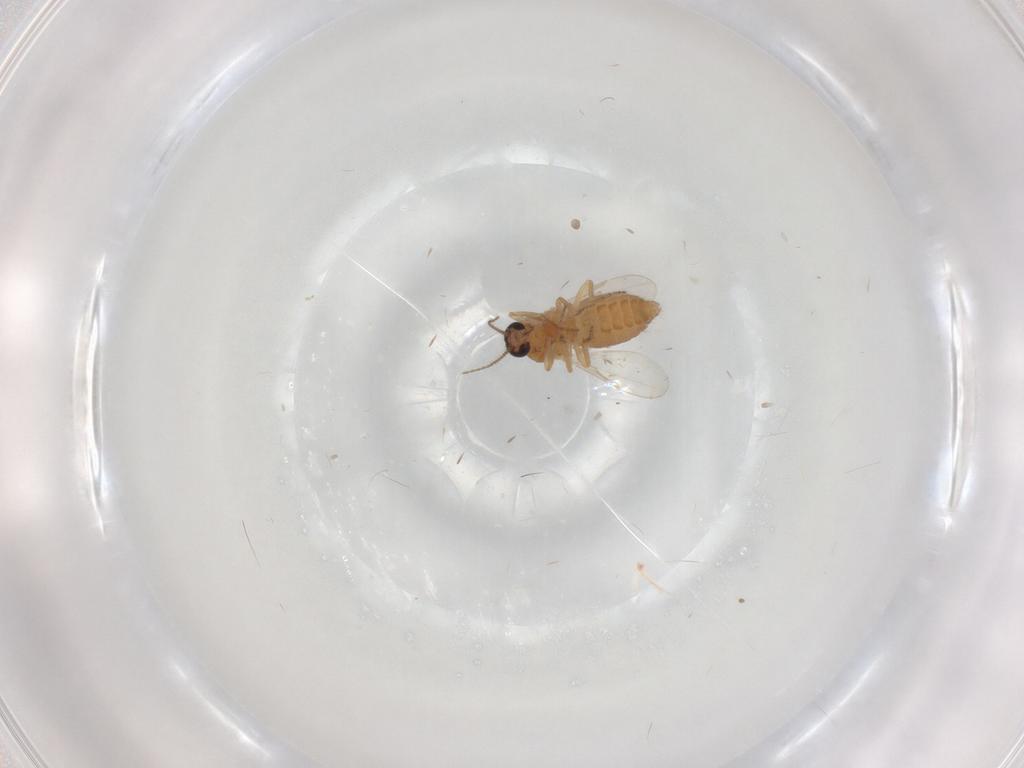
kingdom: Animalia
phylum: Arthropoda
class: Insecta
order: Diptera
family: Ceratopogonidae
